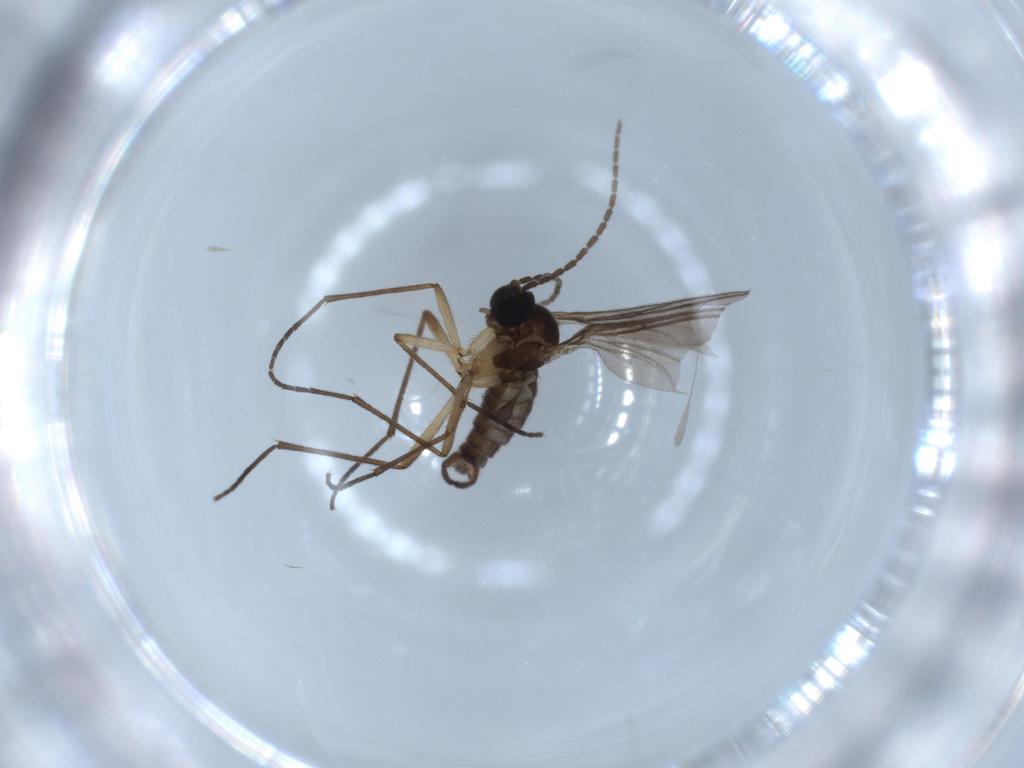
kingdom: Animalia
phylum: Arthropoda
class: Insecta
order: Diptera
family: Sciaridae
